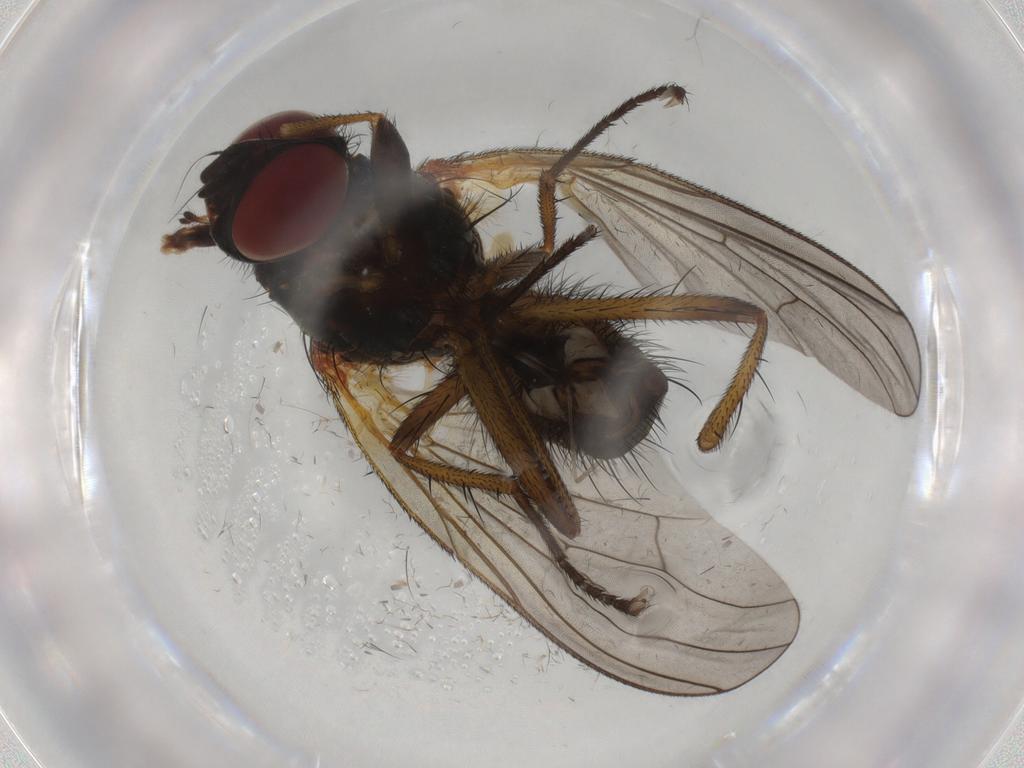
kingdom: Animalia
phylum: Arthropoda
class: Insecta
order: Diptera
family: Anthomyiidae
